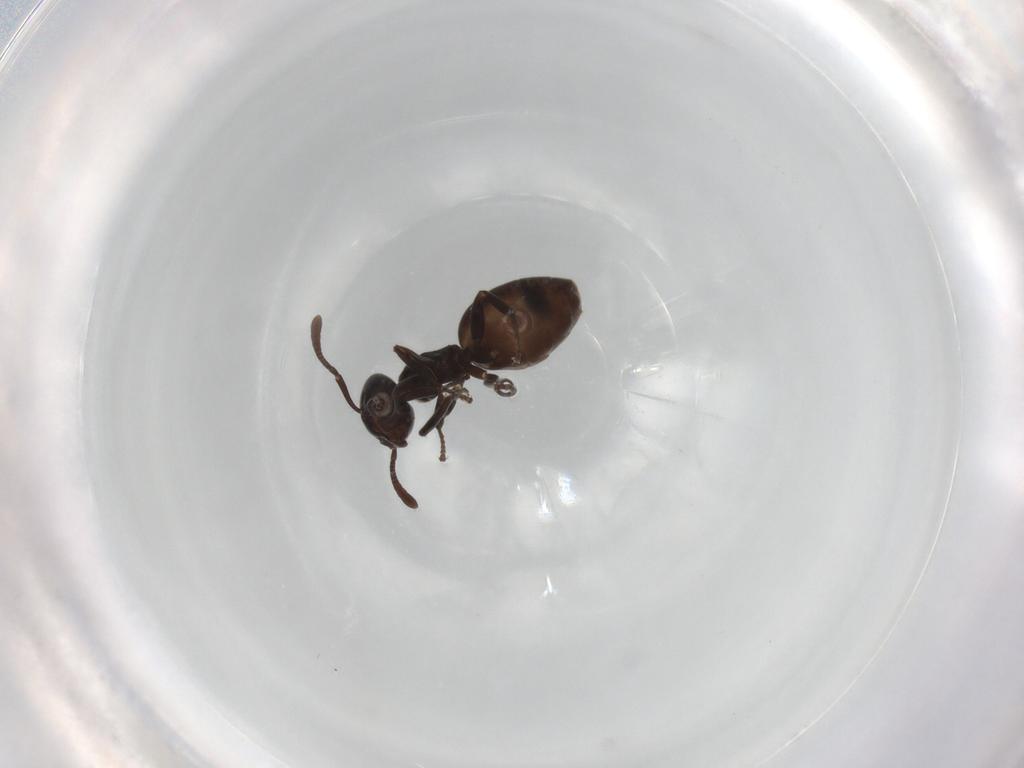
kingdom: Animalia
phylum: Arthropoda
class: Insecta
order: Hymenoptera
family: Formicidae
